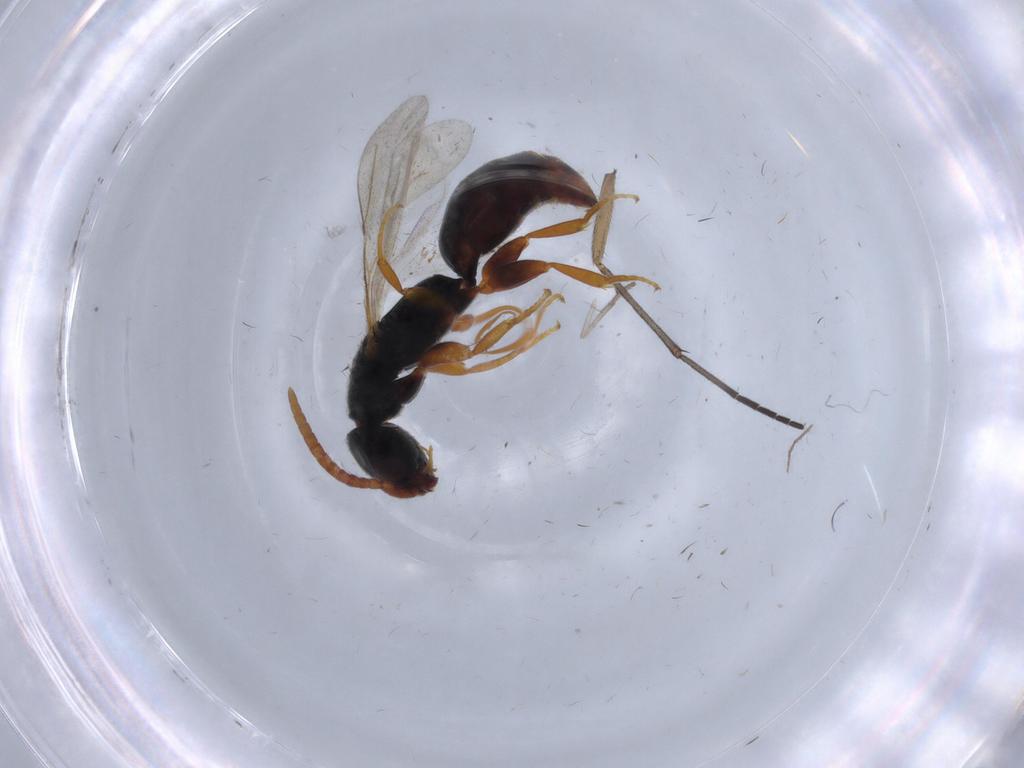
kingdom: Animalia
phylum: Arthropoda
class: Insecta
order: Hymenoptera
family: Bethylidae
